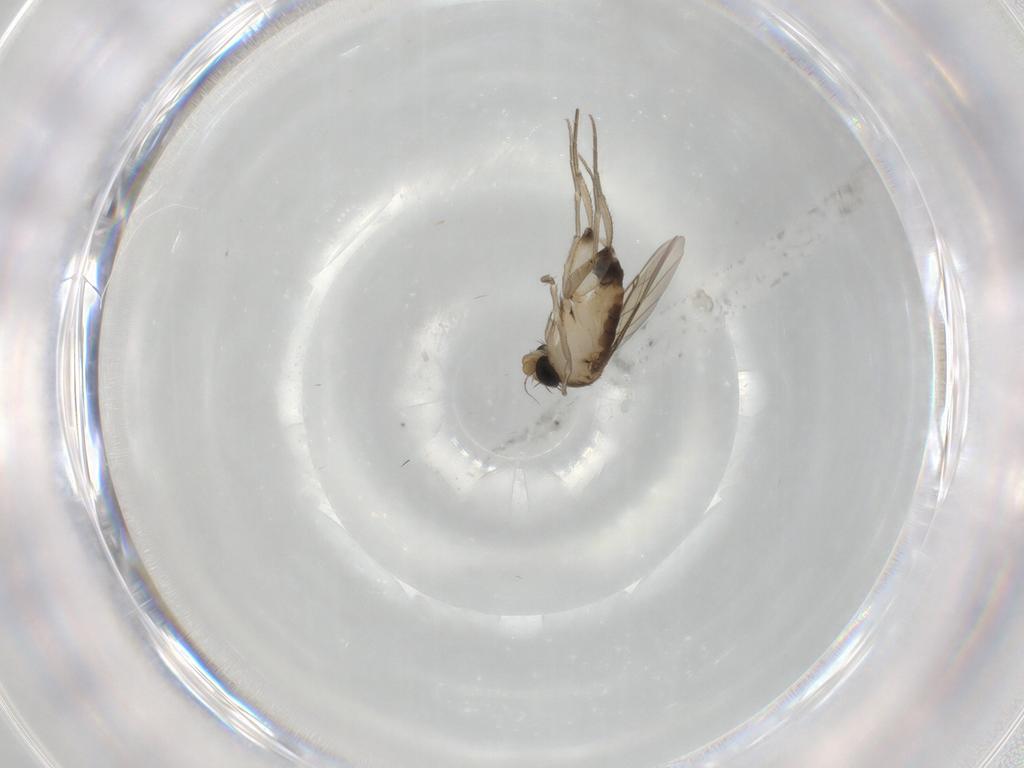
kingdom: Animalia
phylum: Arthropoda
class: Insecta
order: Diptera
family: Phoridae
